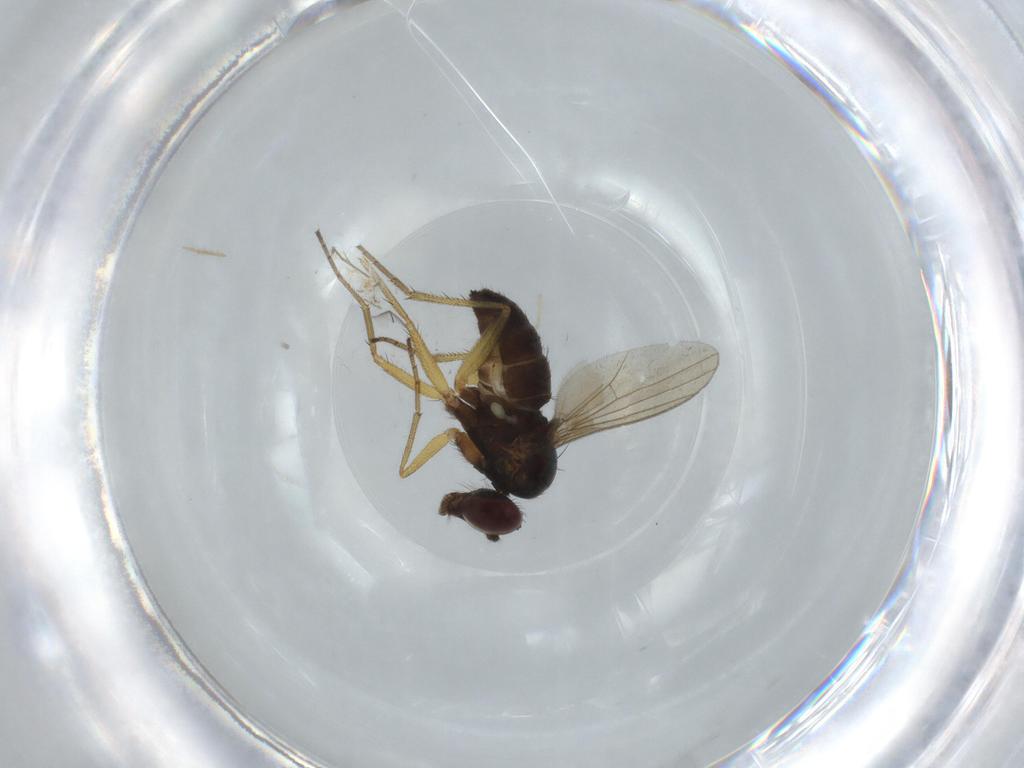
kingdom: Animalia
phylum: Arthropoda
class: Insecta
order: Diptera
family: Dolichopodidae
